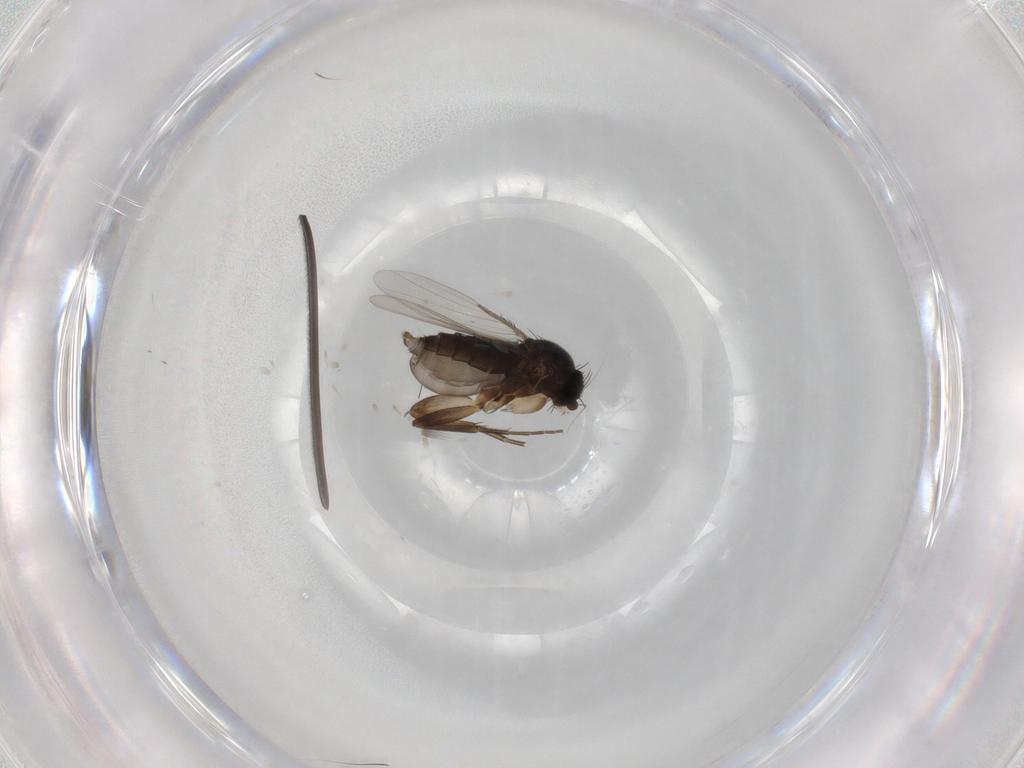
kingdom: Animalia
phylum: Arthropoda
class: Insecta
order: Diptera
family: Phoridae
